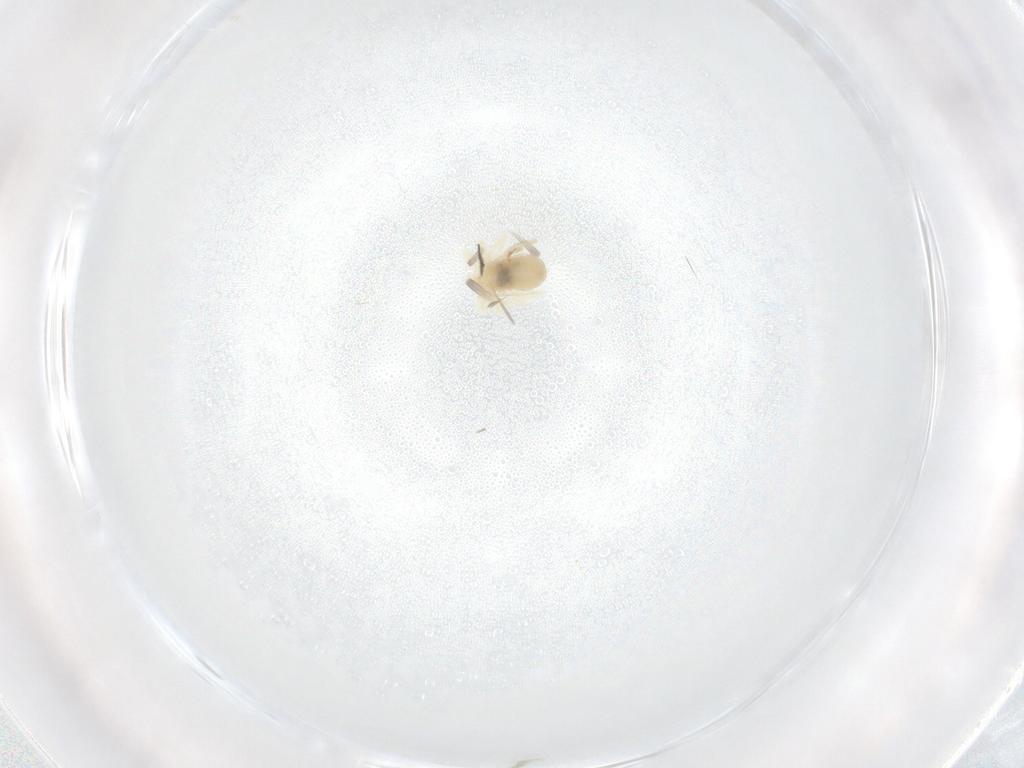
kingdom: Animalia
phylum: Arthropoda
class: Arachnida
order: Trombidiformes
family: Anystidae
